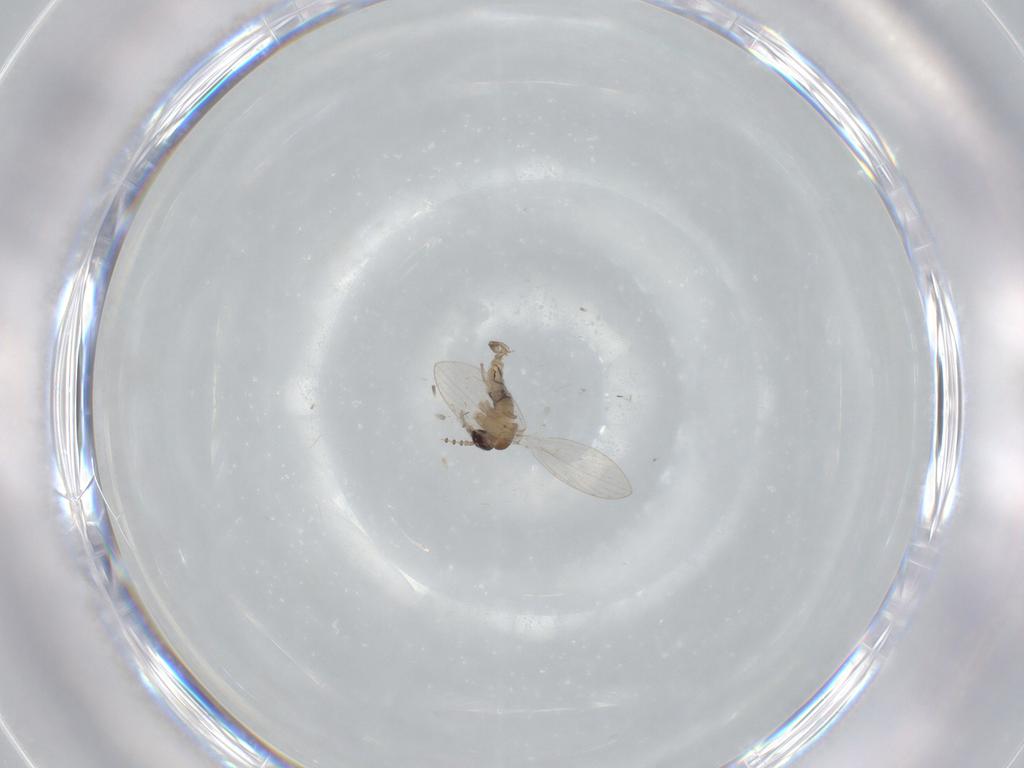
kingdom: Animalia
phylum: Arthropoda
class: Insecta
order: Diptera
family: Psychodidae
